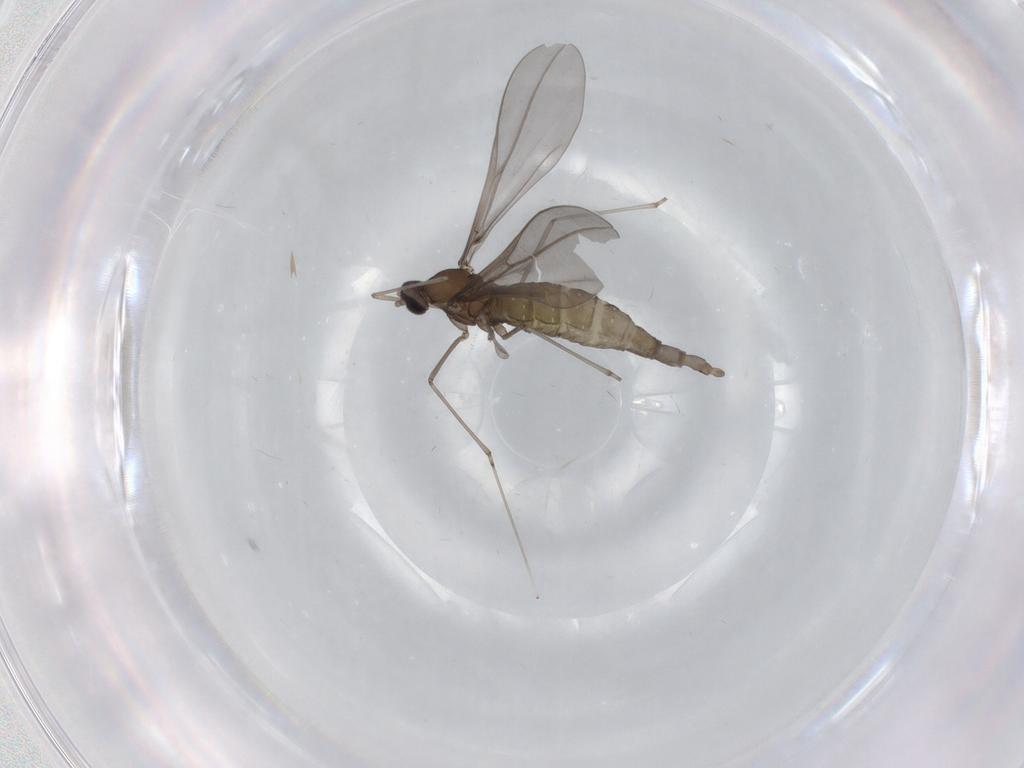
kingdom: Animalia
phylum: Arthropoda
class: Insecta
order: Diptera
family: Cecidomyiidae
